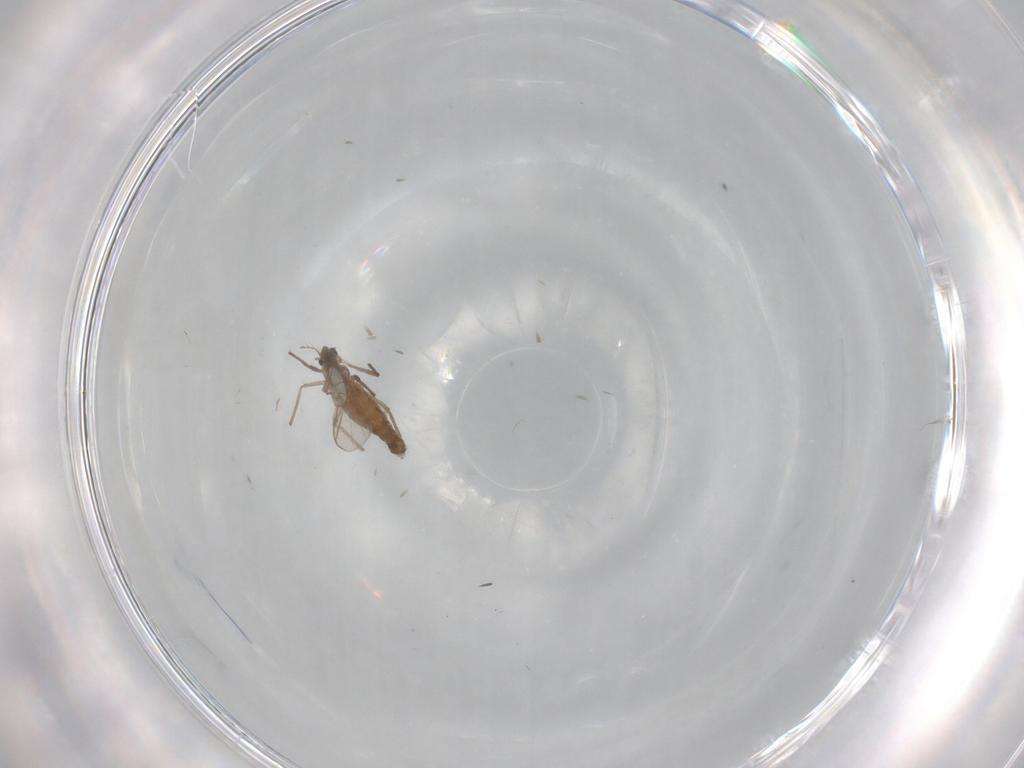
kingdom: Animalia
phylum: Arthropoda
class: Insecta
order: Diptera
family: Chironomidae
